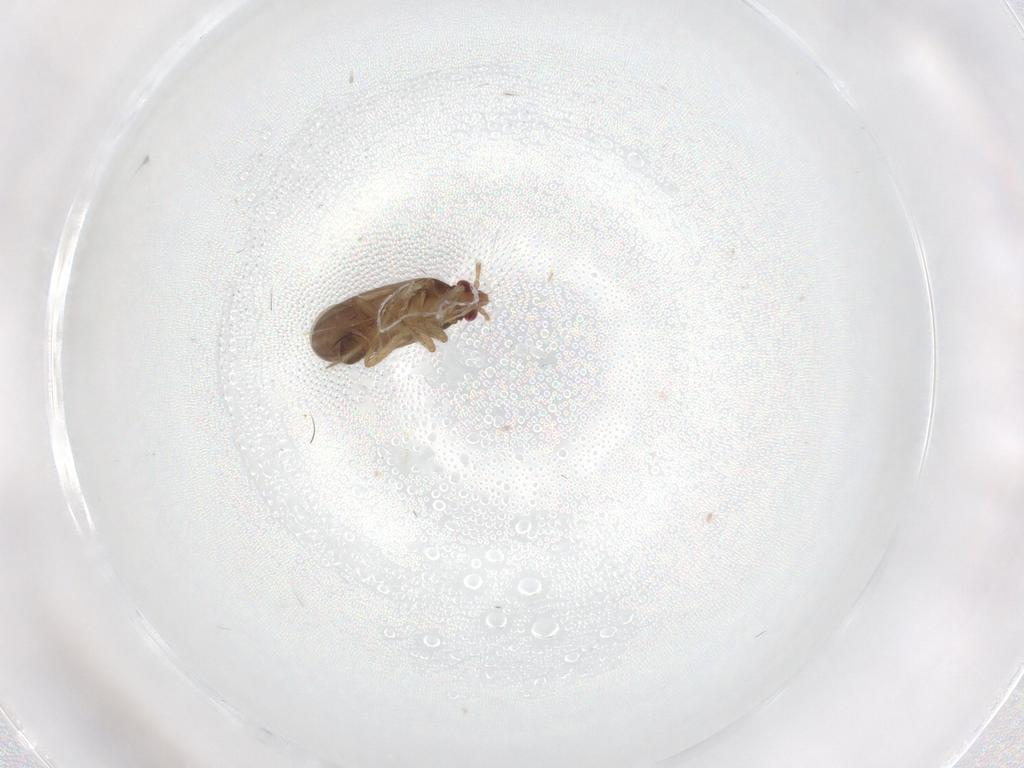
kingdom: Animalia
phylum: Arthropoda
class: Insecta
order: Hemiptera
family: Ceratocombidae
